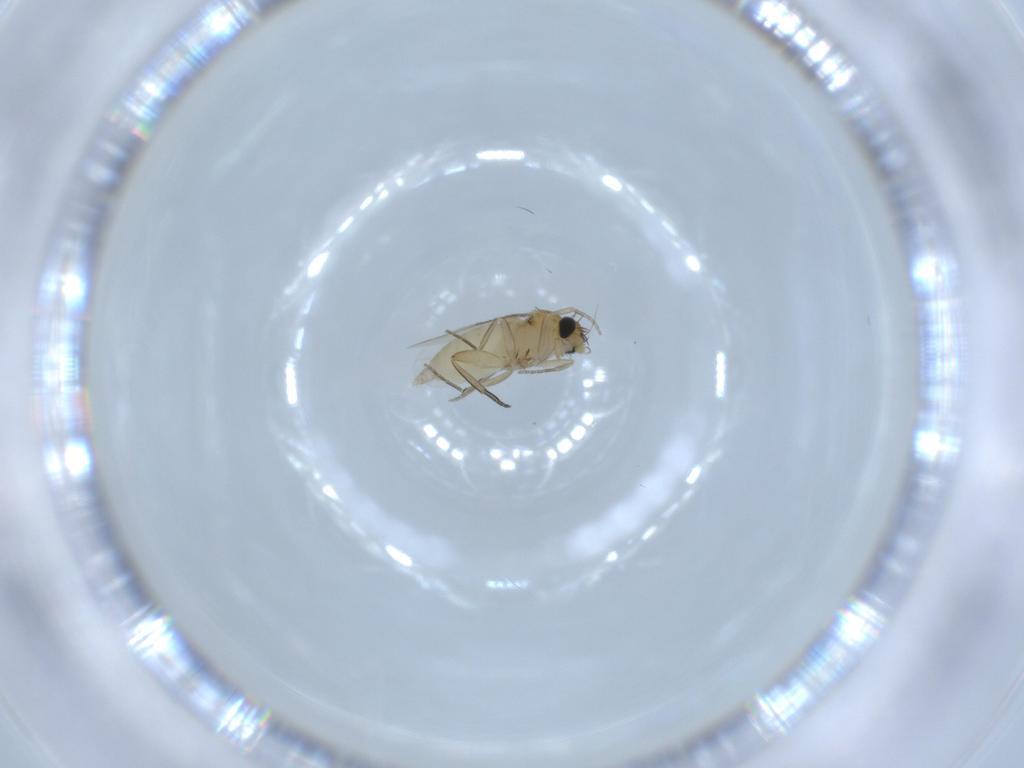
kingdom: Animalia
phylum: Arthropoda
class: Insecta
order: Diptera
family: Phoridae
